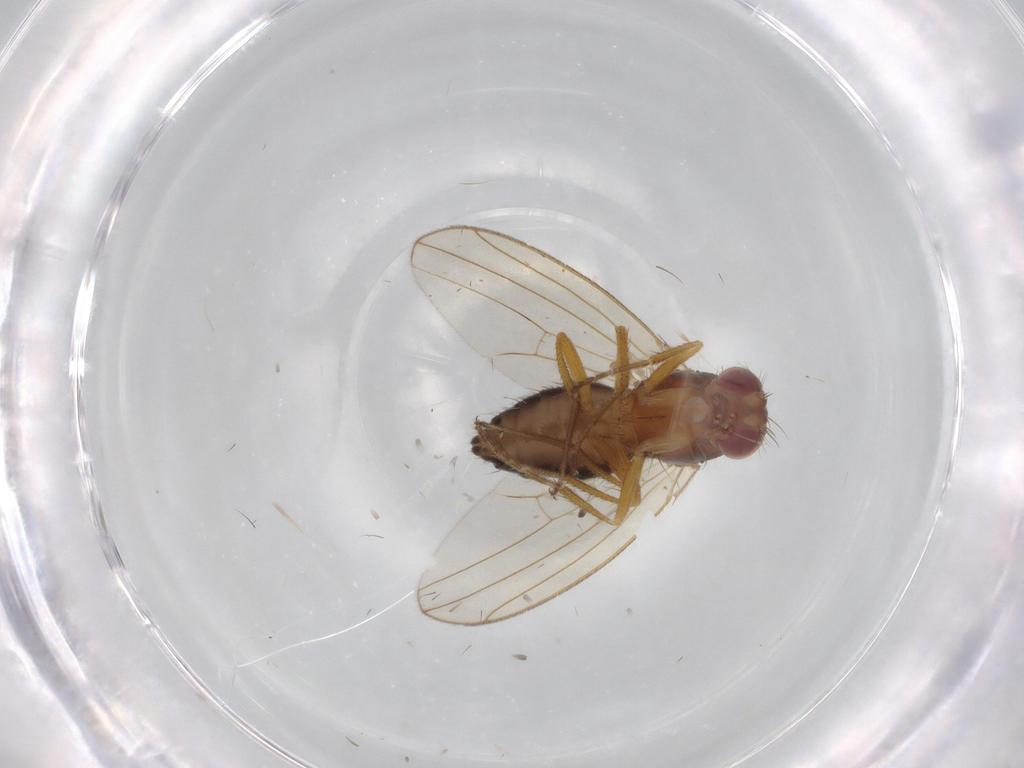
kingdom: Animalia
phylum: Arthropoda
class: Insecta
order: Diptera
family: Drosophilidae
